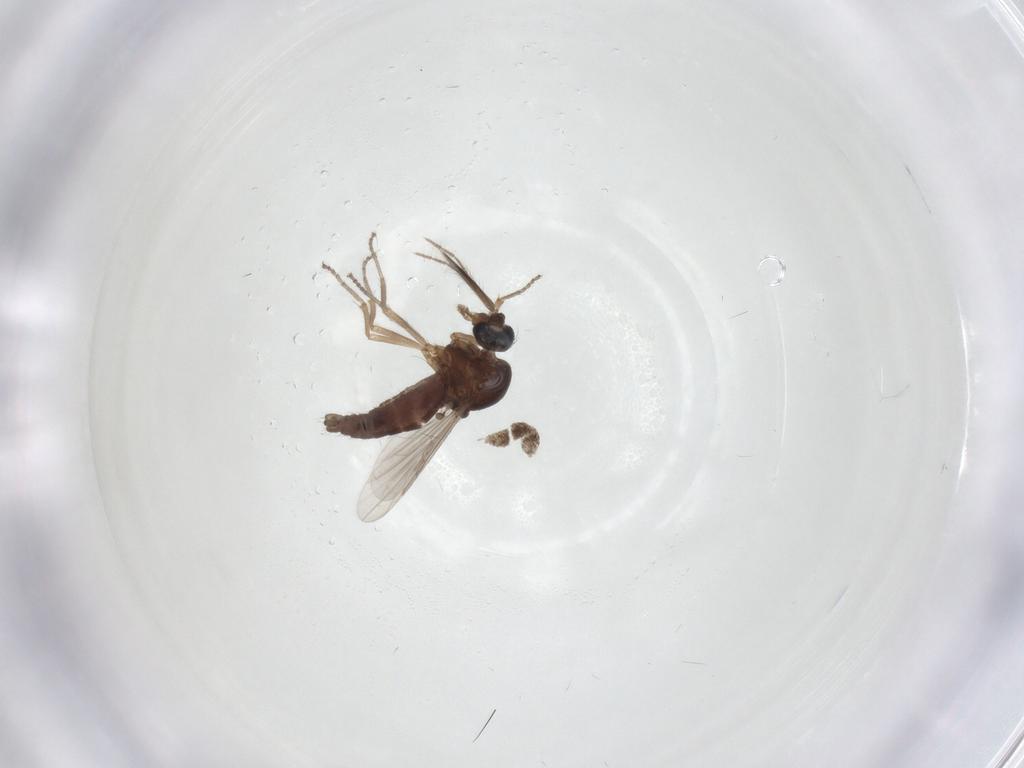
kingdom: Animalia
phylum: Arthropoda
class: Insecta
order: Diptera
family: Ceratopogonidae
